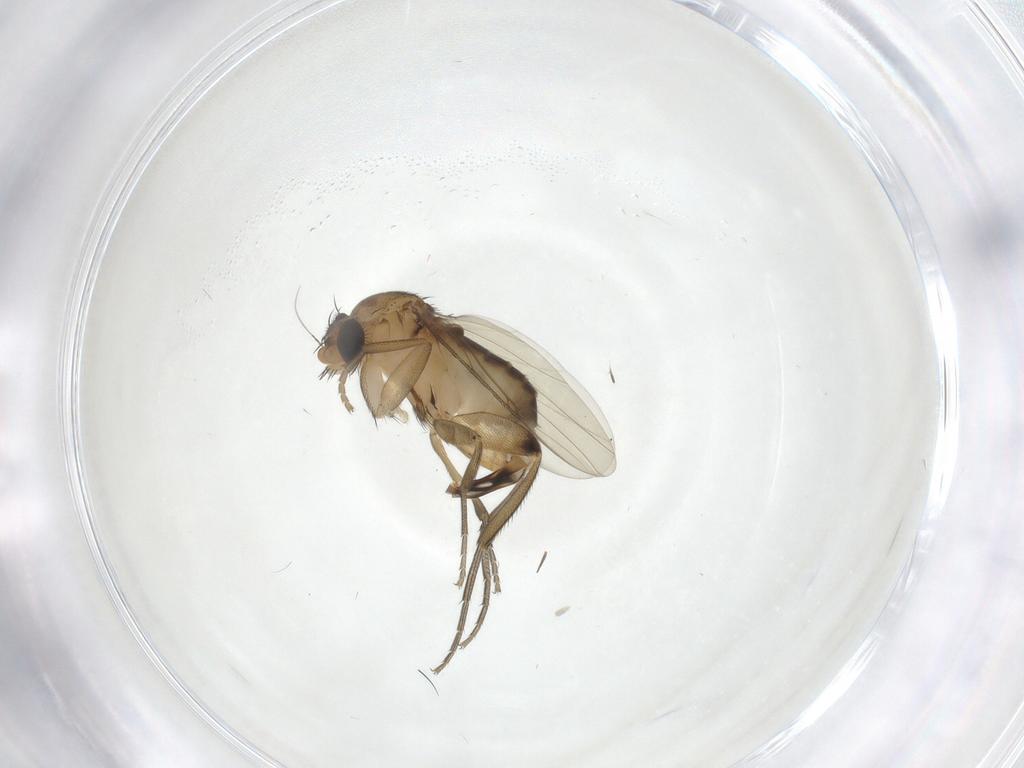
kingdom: Animalia
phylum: Arthropoda
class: Insecta
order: Diptera
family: Phoridae
